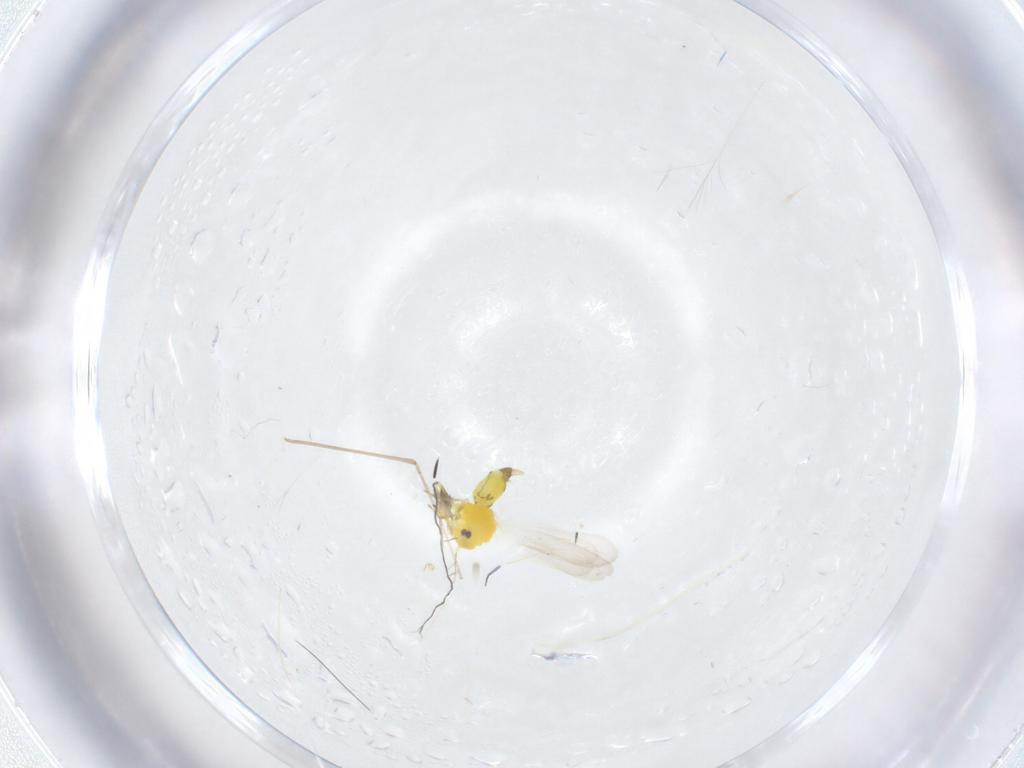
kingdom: Animalia
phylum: Arthropoda
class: Insecta
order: Hemiptera
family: Aleyrodidae
